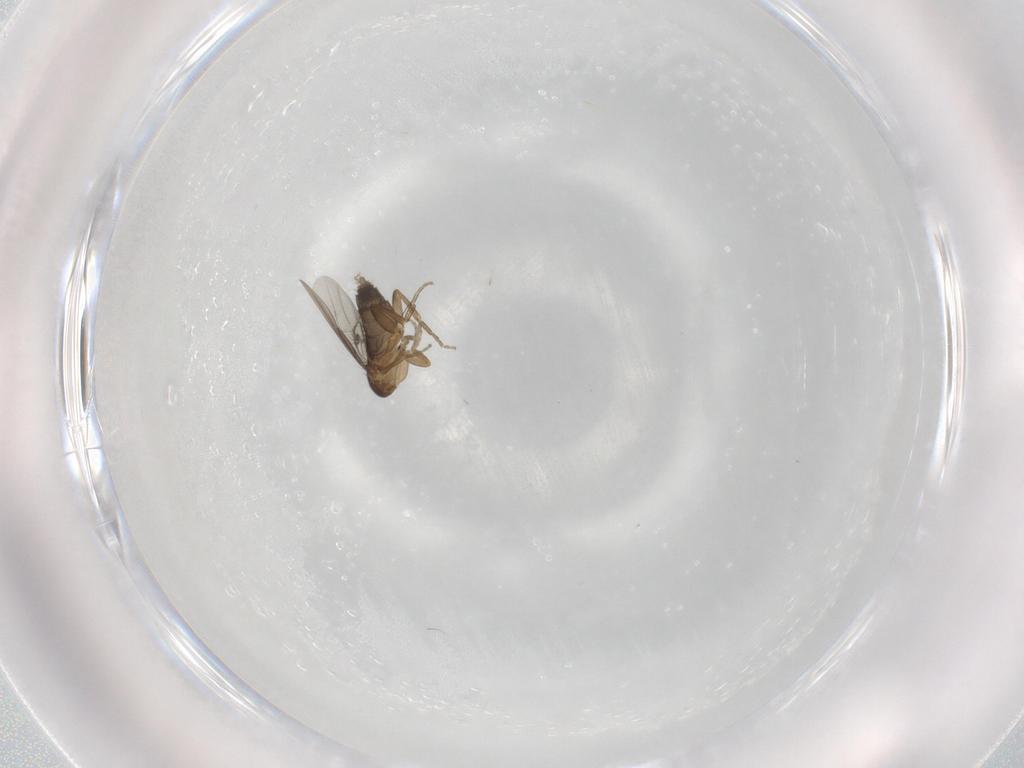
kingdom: Animalia
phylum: Arthropoda
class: Insecta
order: Diptera
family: Phoridae
